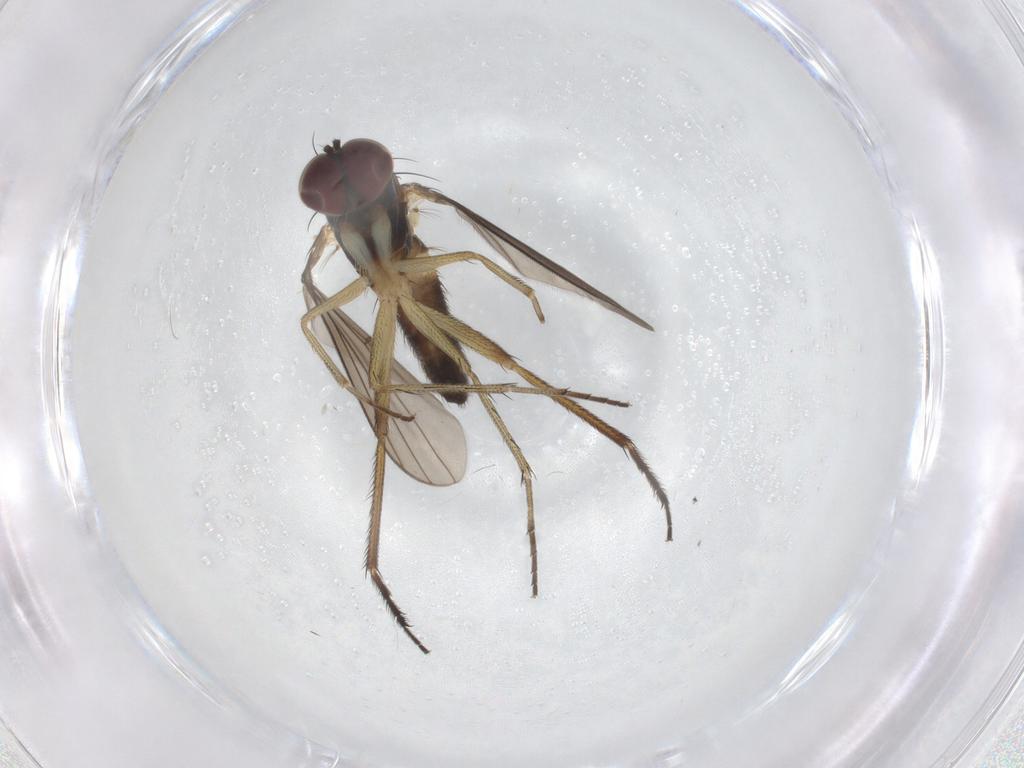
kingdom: Animalia
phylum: Arthropoda
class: Insecta
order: Diptera
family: Dolichopodidae
